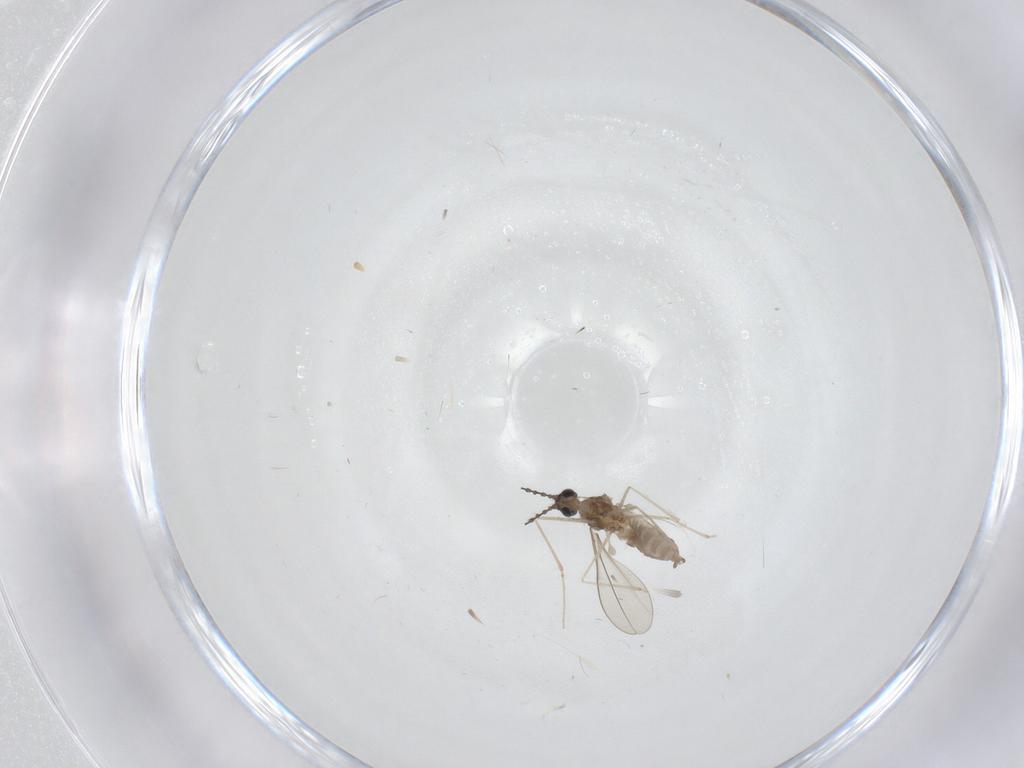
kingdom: Animalia
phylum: Arthropoda
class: Insecta
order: Diptera
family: Cecidomyiidae
